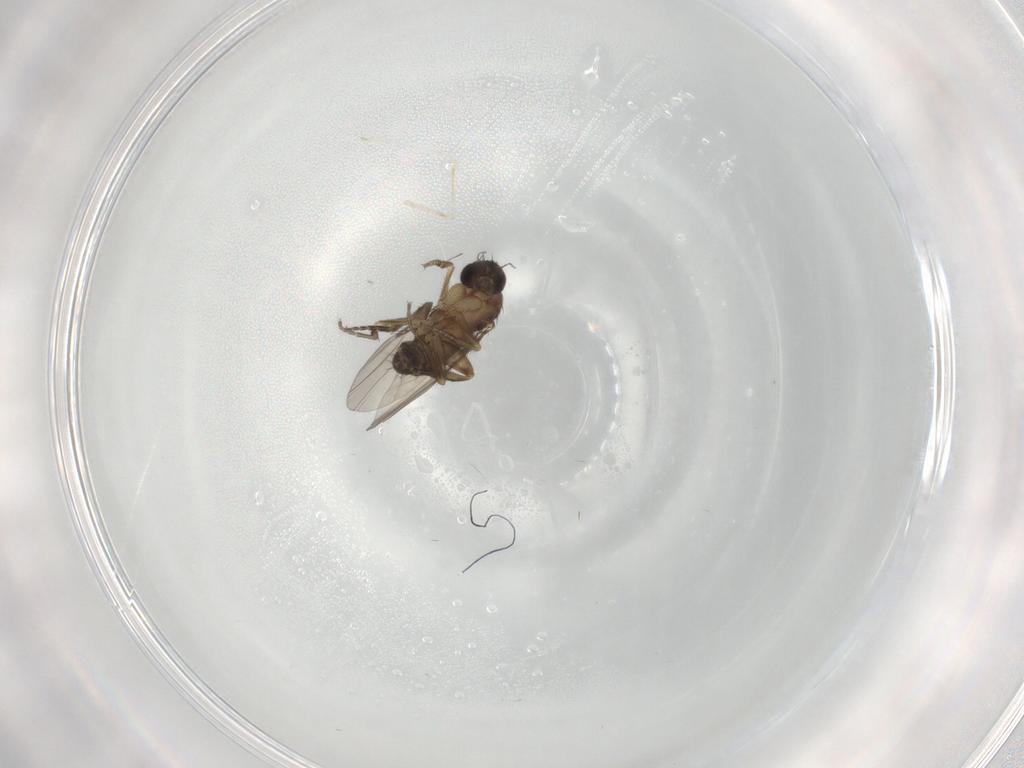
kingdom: Animalia
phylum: Arthropoda
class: Insecta
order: Diptera
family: Phoridae
